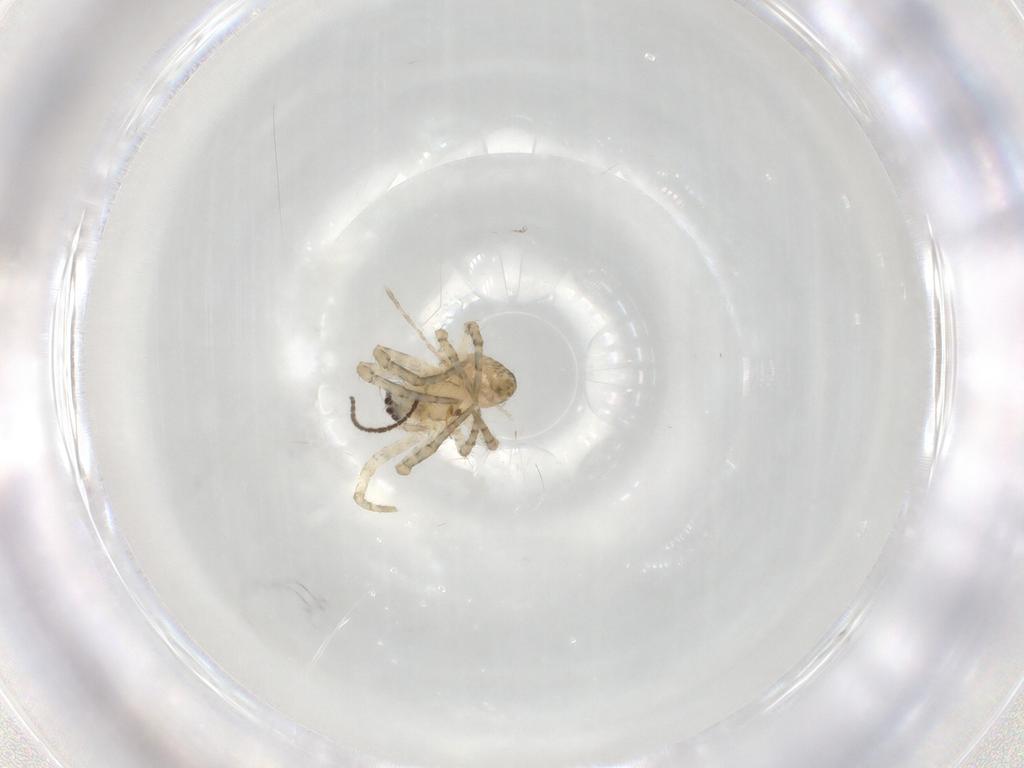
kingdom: Animalia
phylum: Arthropoda
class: Arachnida
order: Araneae
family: Araneidae
